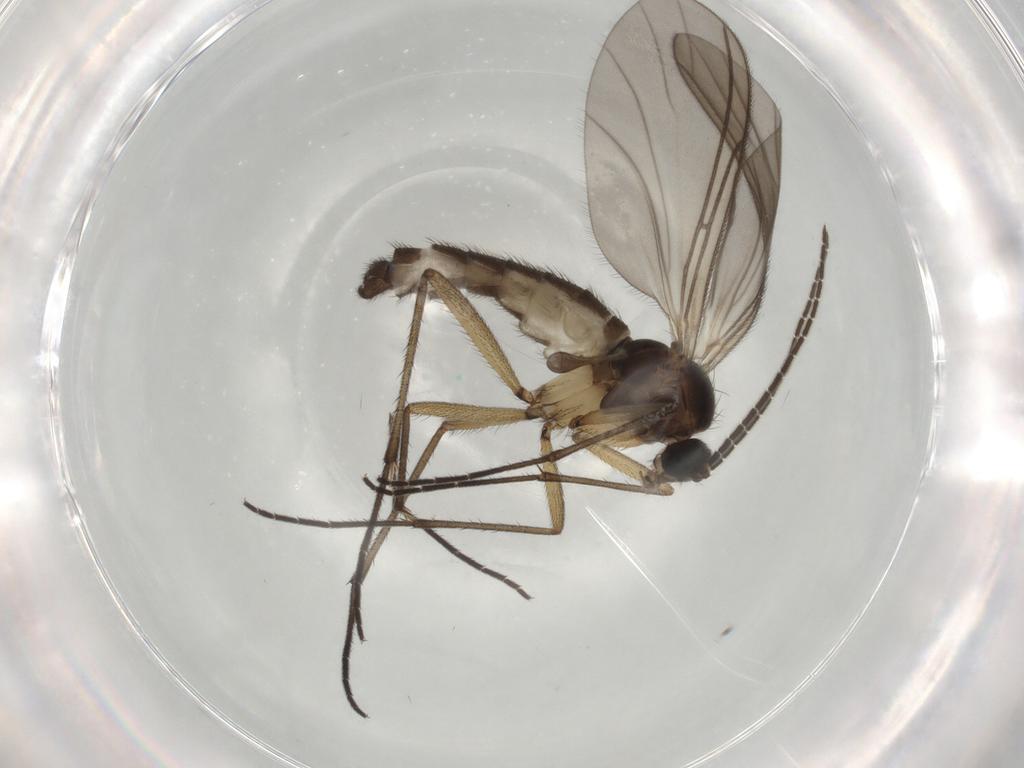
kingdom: Animalia
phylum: Arthropoda
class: Insecta
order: Diptera
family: Sciaridae
